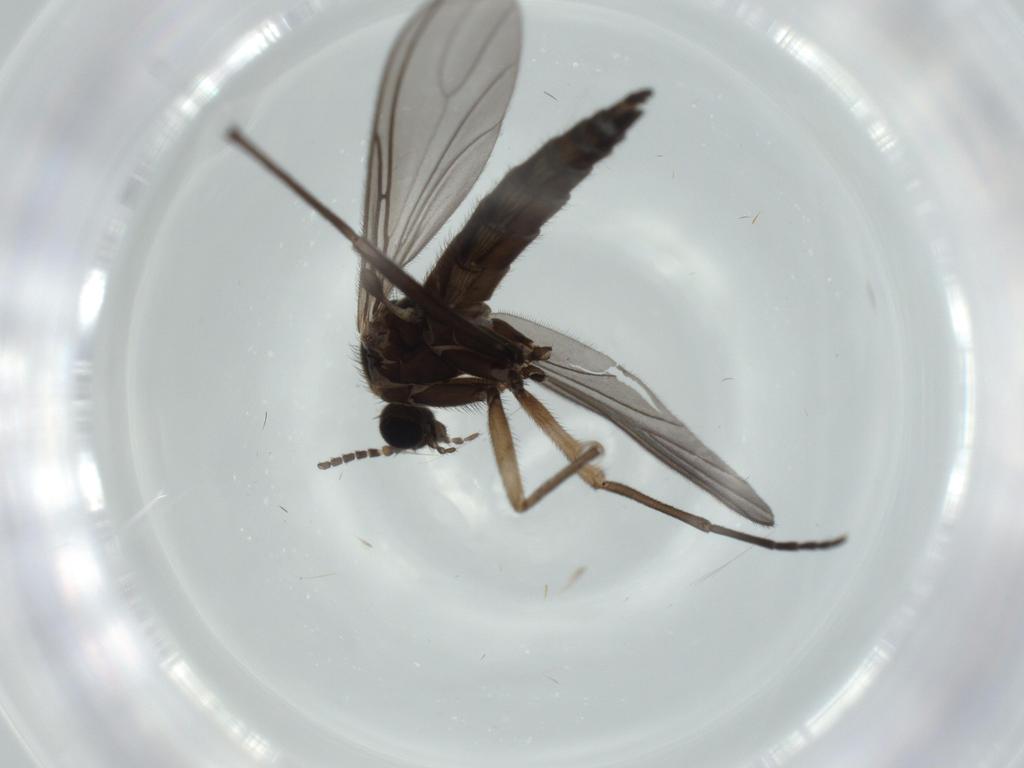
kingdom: Animalia
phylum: Arthropoda
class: Insecta
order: Diptera
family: Sciaridae
